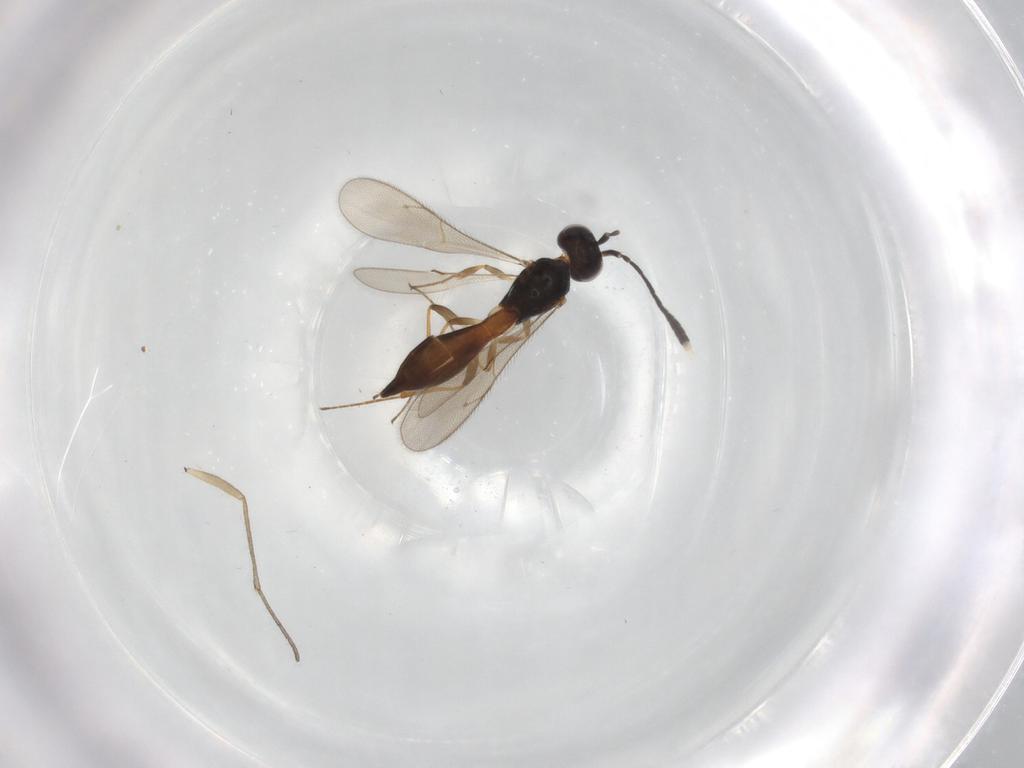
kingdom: Animalia
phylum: Arthropoda
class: Insecta
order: Hymenoptera
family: Scelionidae
